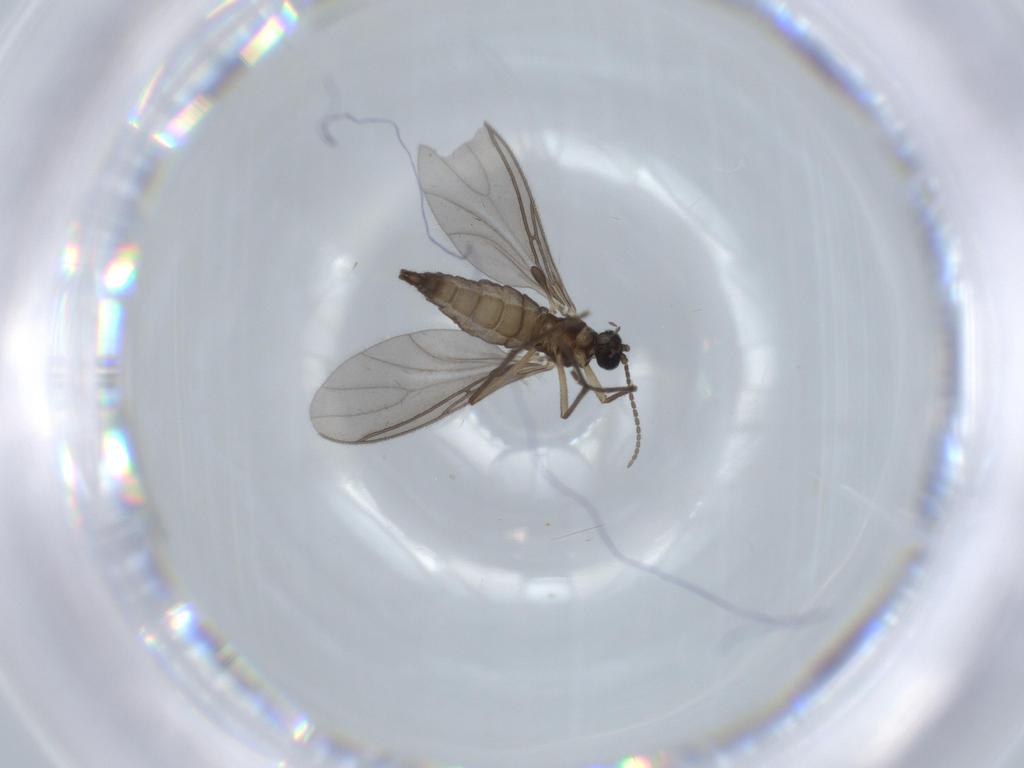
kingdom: Animalia
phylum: Arthropoda
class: Insecta
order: Diptera
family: Sciaridae
